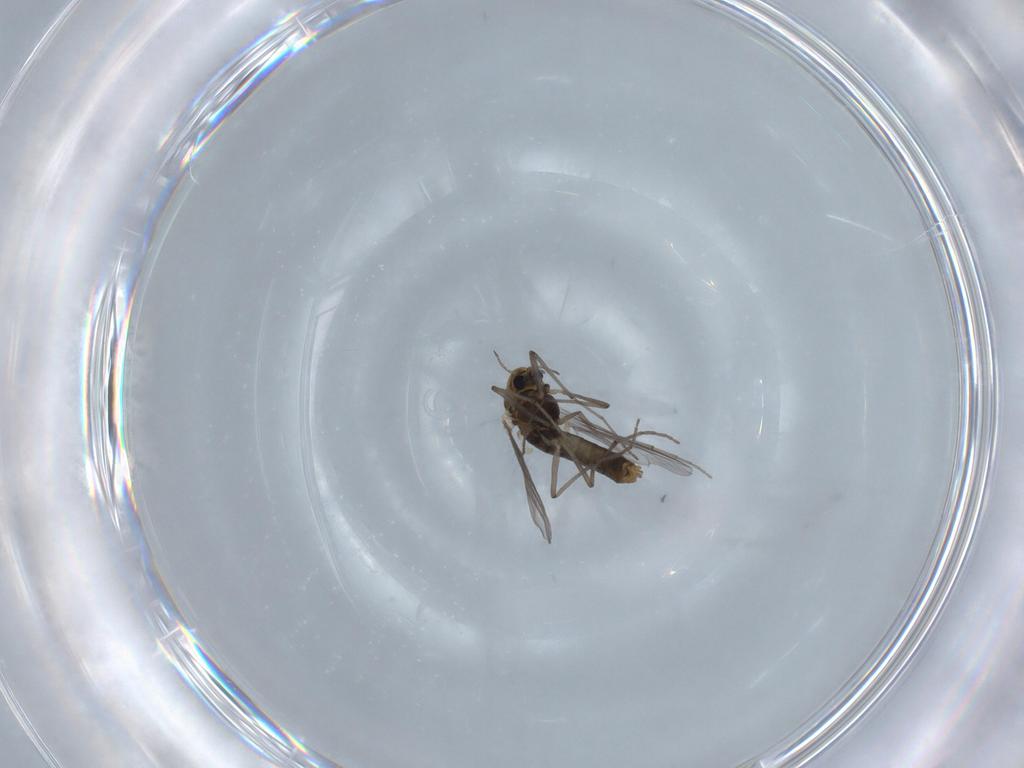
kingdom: Animalia
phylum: Arthropoda
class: Insecta
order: Diptera
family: Chironomidae
